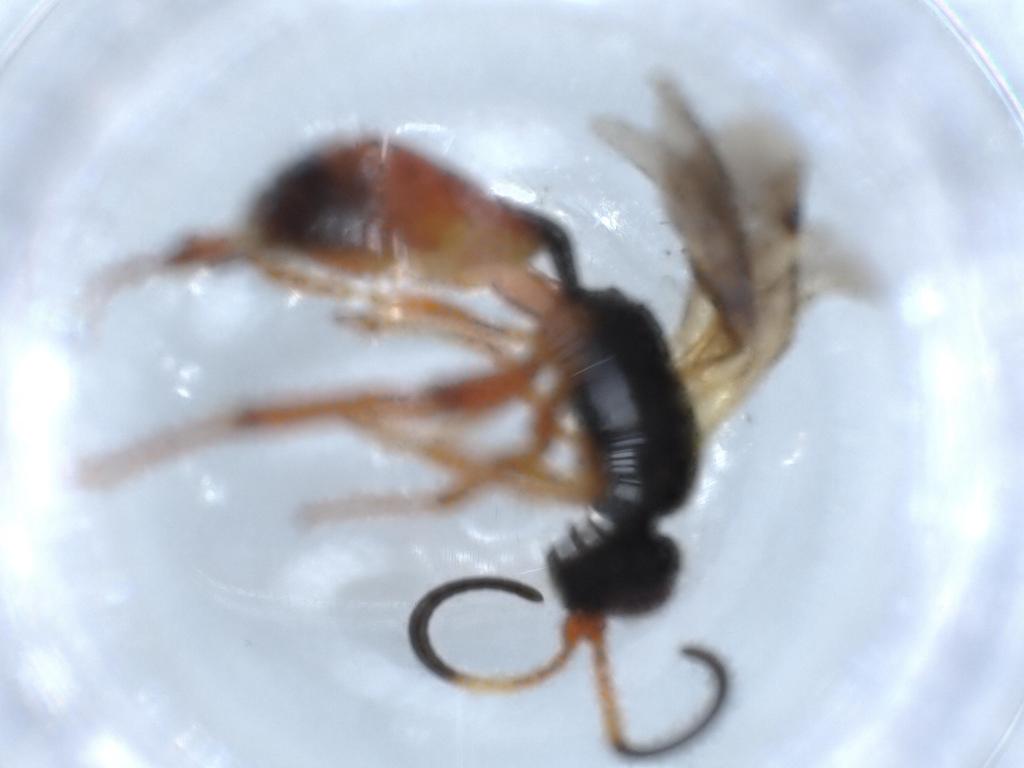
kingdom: Animalia
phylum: Arthropoda
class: Insecta
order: Hymenoptera
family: Ichneumonidae
